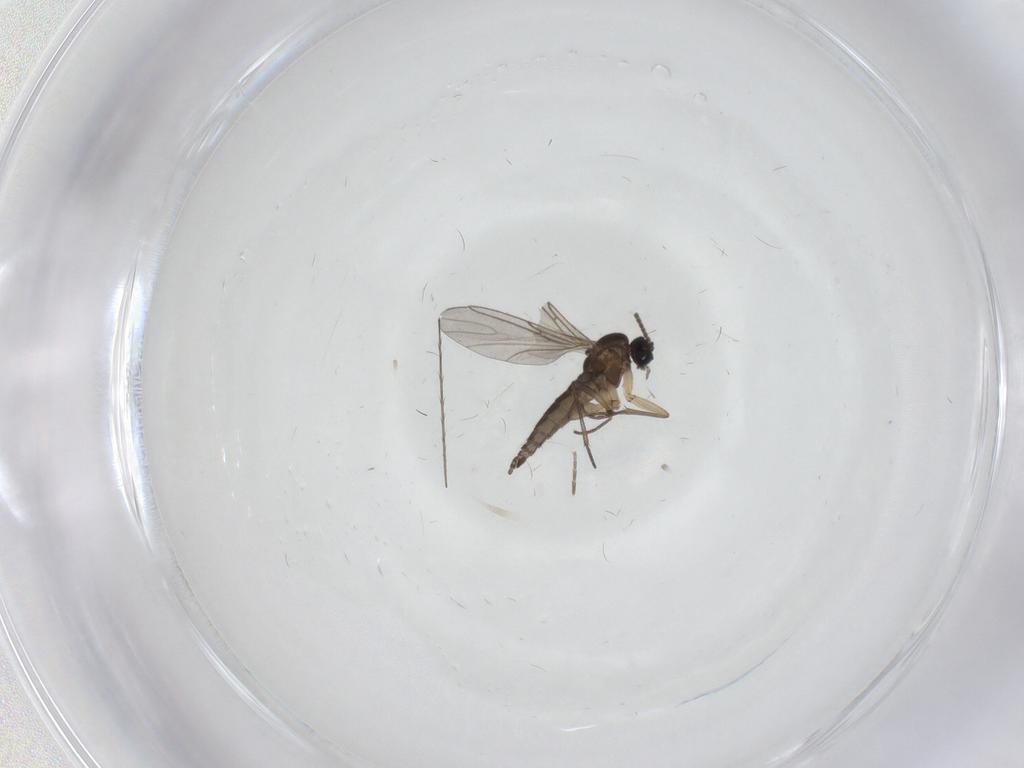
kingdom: Animalia
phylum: Arthropoda
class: Insecta
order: Diptera
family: Sciaridae
